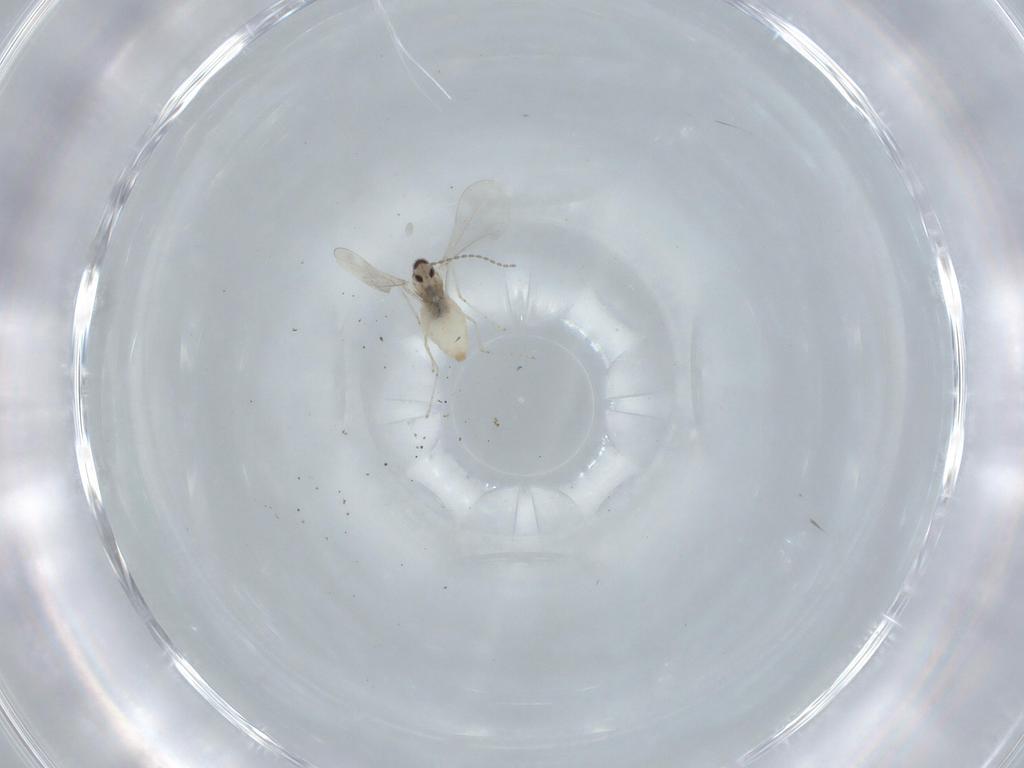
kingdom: Animalia
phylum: Arthropoda
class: Insecta
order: Diptera
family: Cecidomyiidae
